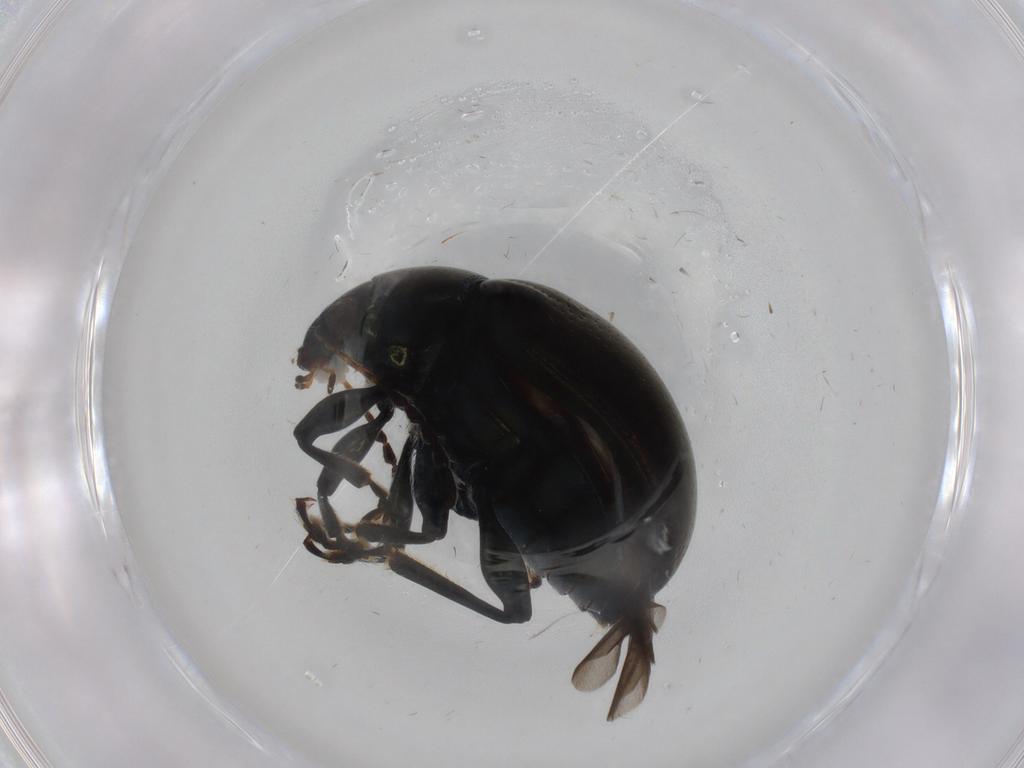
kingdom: Animalia
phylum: Arthropoda
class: Insecta
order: Coleoptera
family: Chrysomelidae
